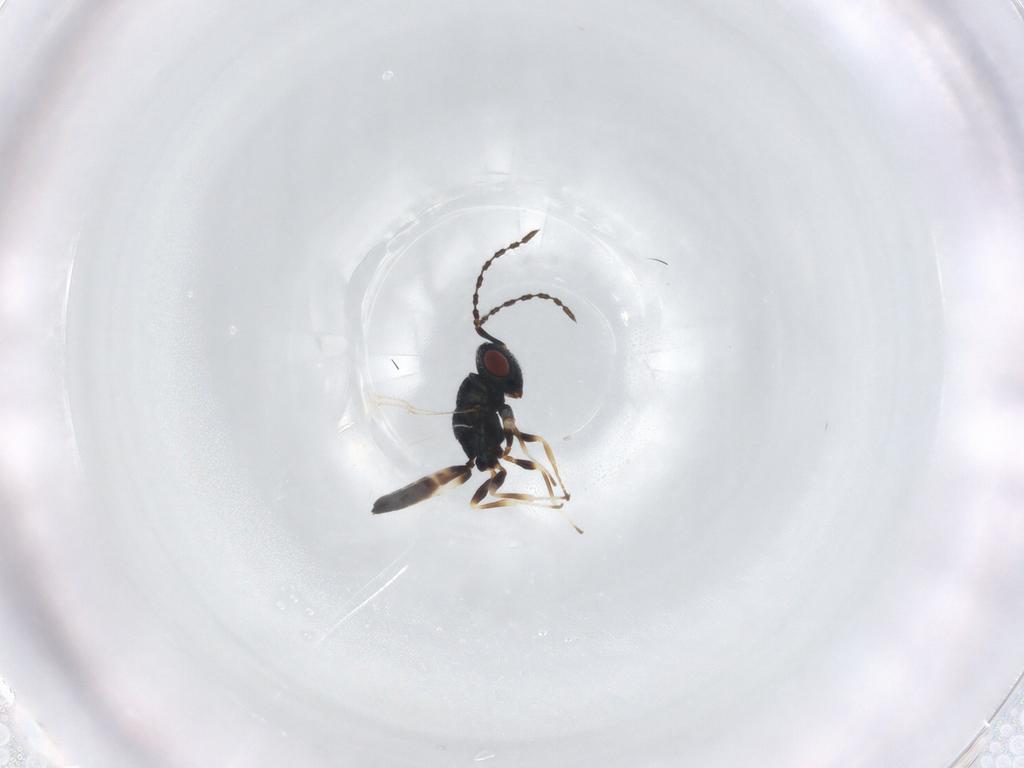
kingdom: Animalia
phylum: Arthropoda
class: Insecta
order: Hymenoptera
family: Pteromalidae
